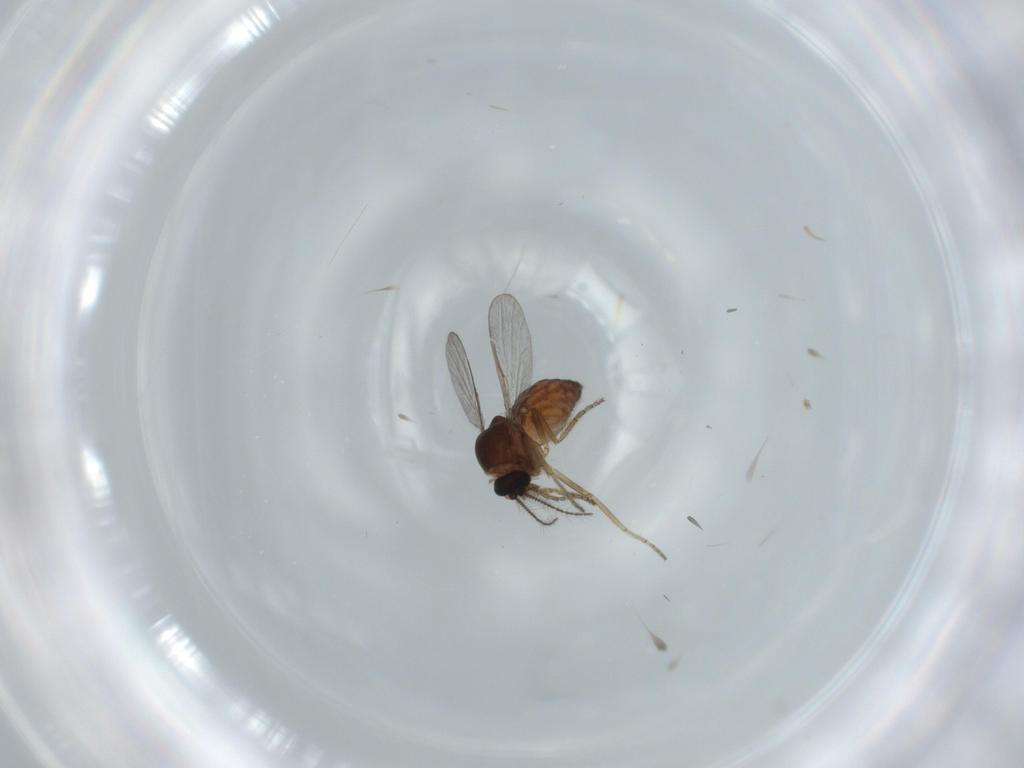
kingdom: Animalia
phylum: Arthropoda
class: Insecta
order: Diptera
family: Ceratopogonidae
